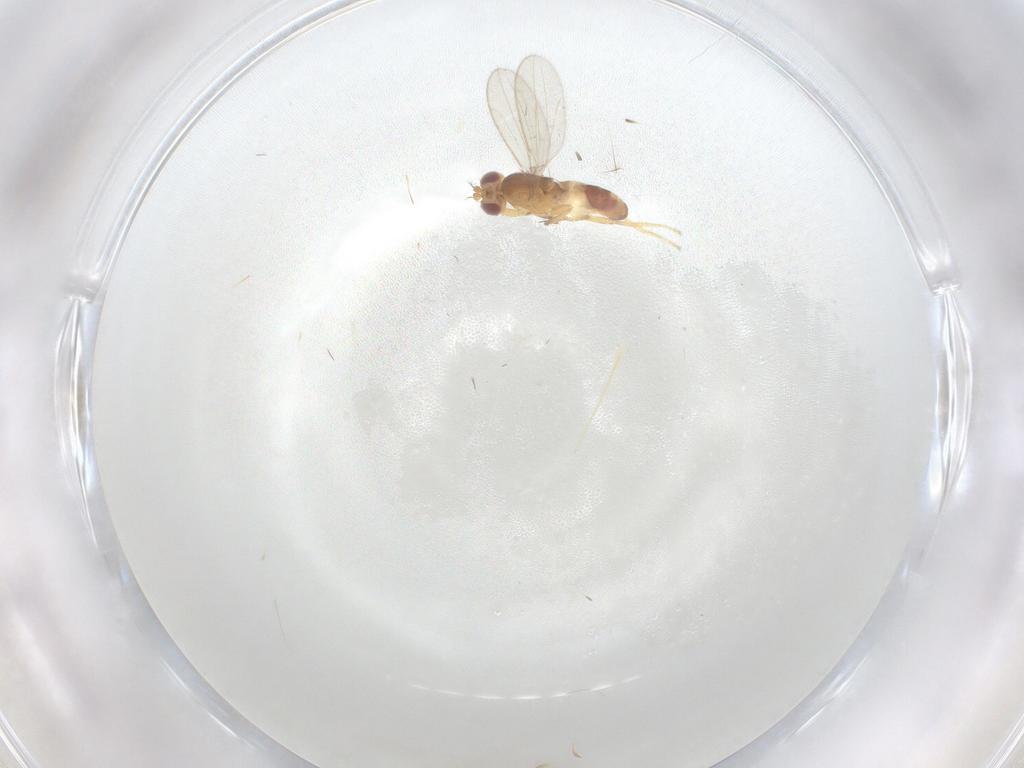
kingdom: Animalia
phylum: Arthropoda
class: Insecta
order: Diptera
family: Periscelididae
